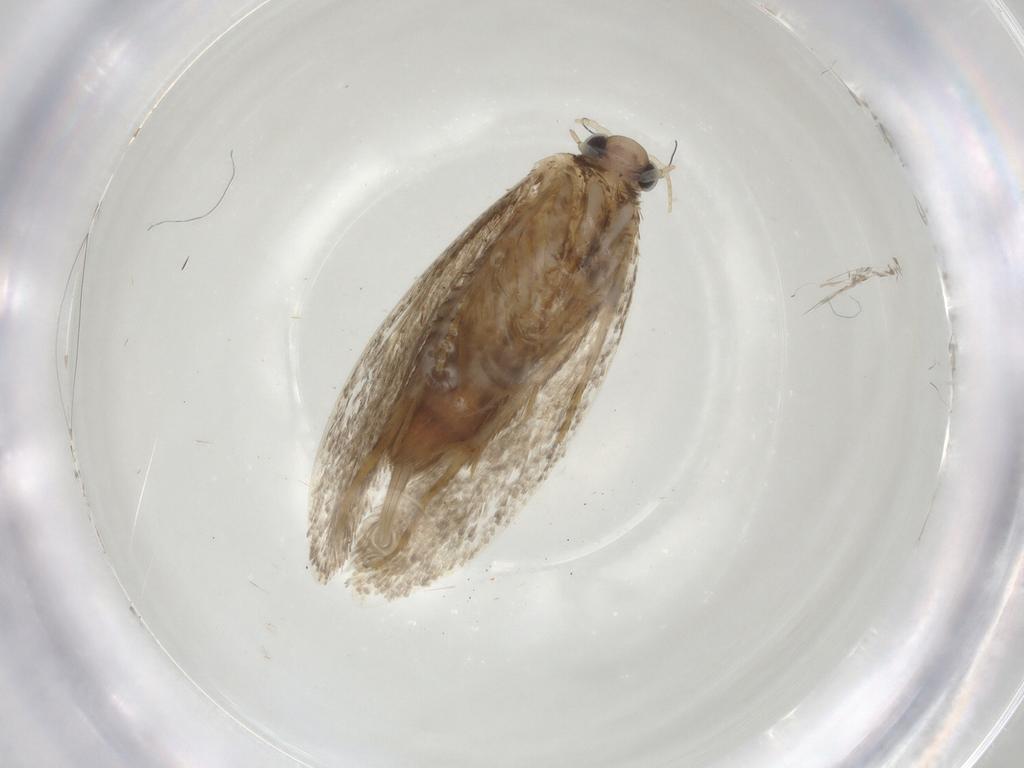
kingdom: Animalia
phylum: Arthropoda
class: Insecta
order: Lepidoptera
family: Psychidae
